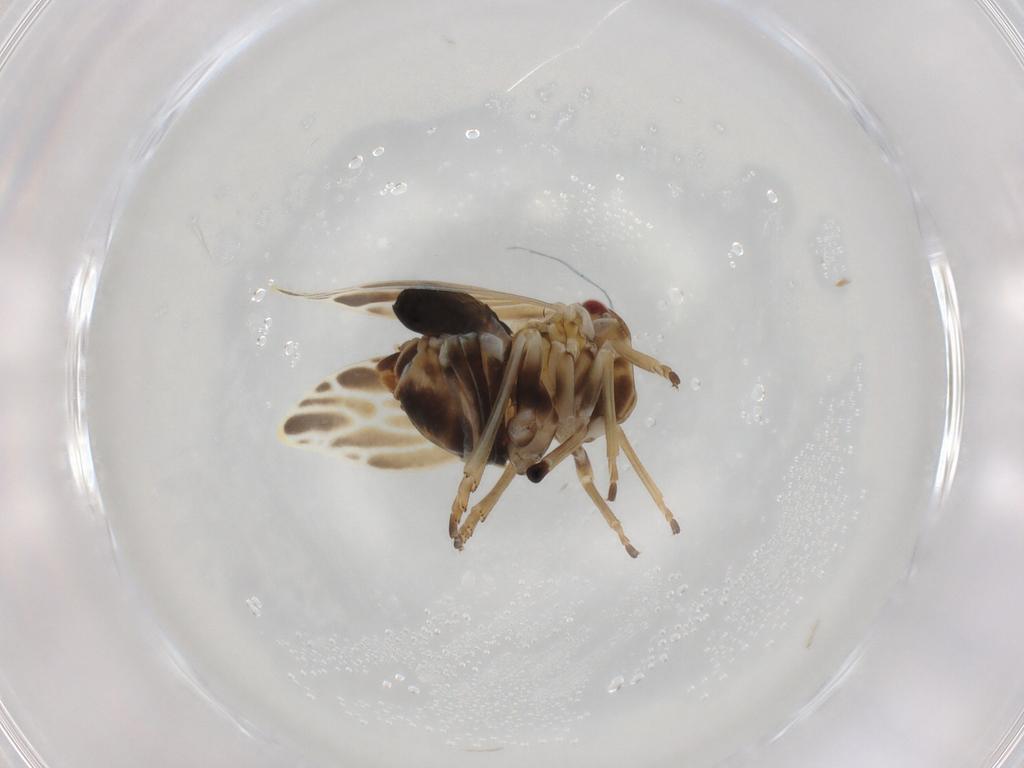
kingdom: Animalia
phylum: Arthropoda
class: Insecta
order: Hemiptera
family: Derbidae
